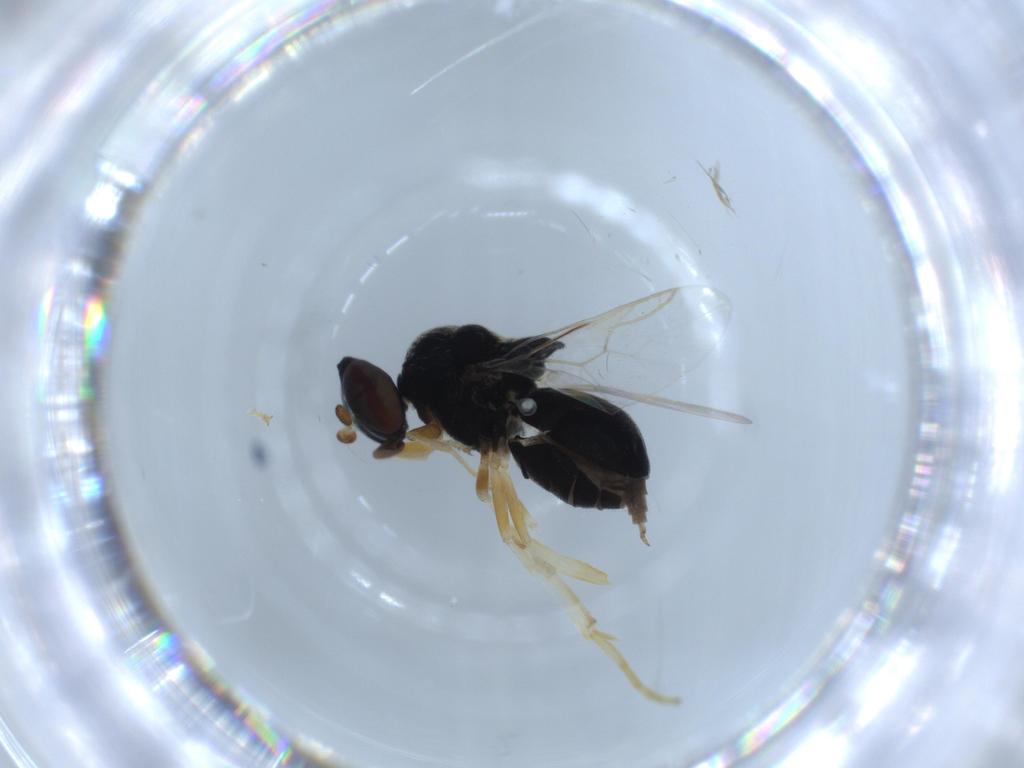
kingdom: Animalia
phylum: Arthropoda
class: Insecta
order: Diptera
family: Stratiomyidae
